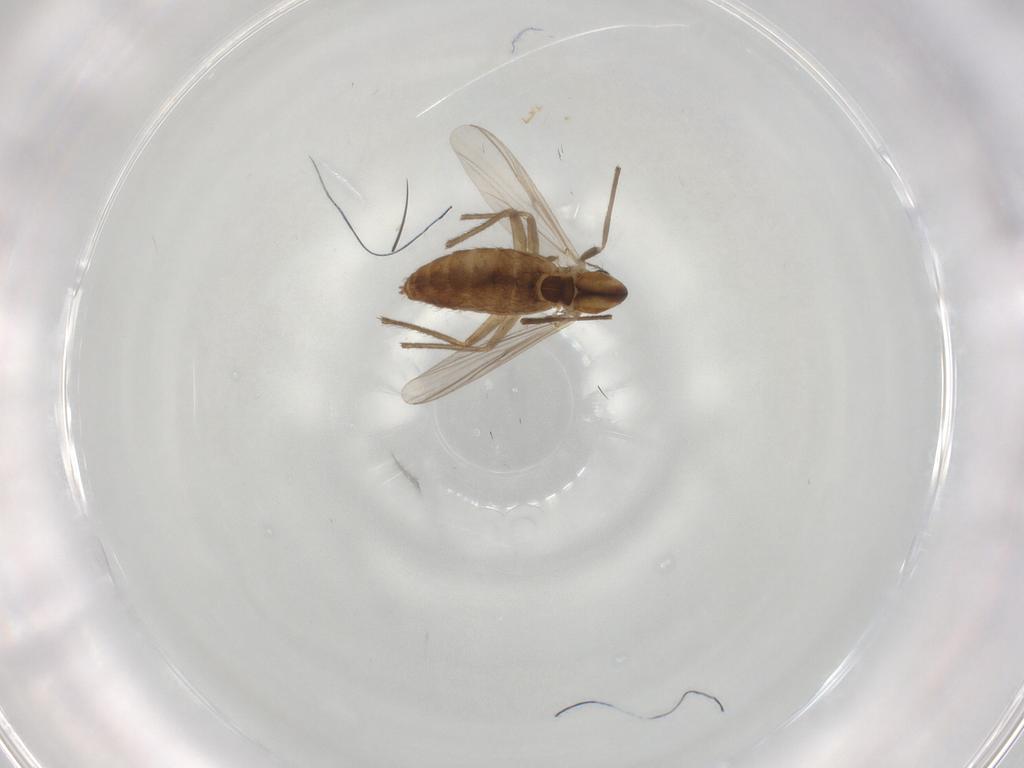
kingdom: Animalia
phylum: Arthropoda
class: Insecta
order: Diptera
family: Chironomidae
